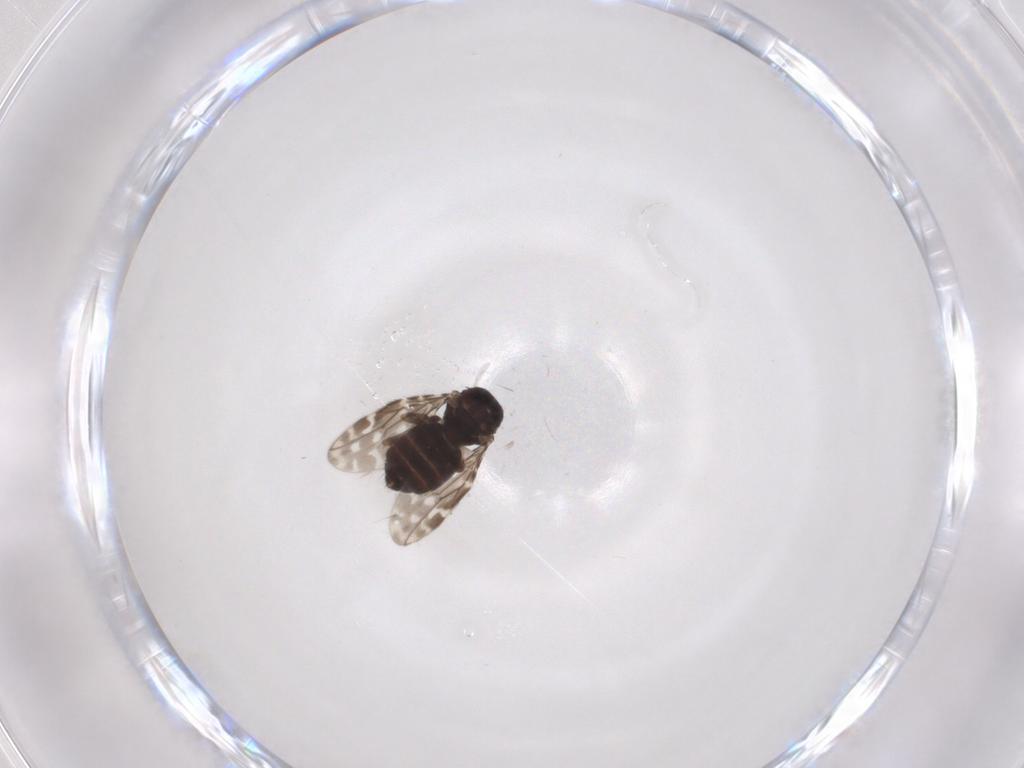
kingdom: Animalia
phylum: Arthropoda
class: Insecta
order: Diptera
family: Sphaeroceridae
